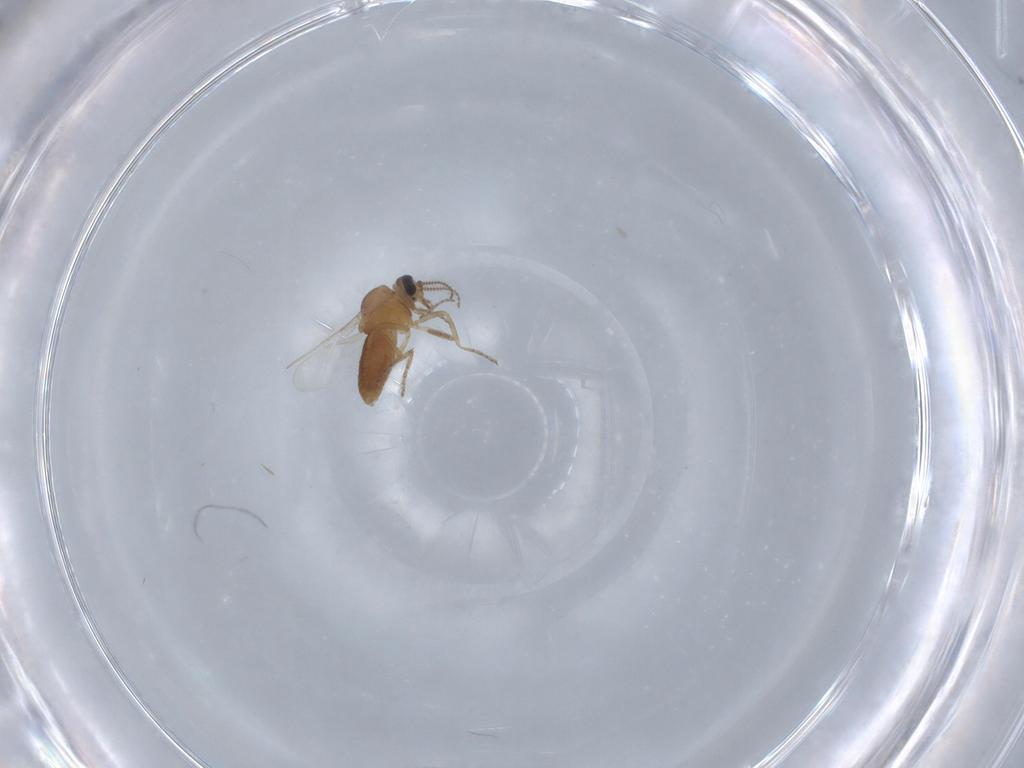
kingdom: Animalia
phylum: Arthropoda
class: Insecta
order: Diptera
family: Ceratopogonidae
